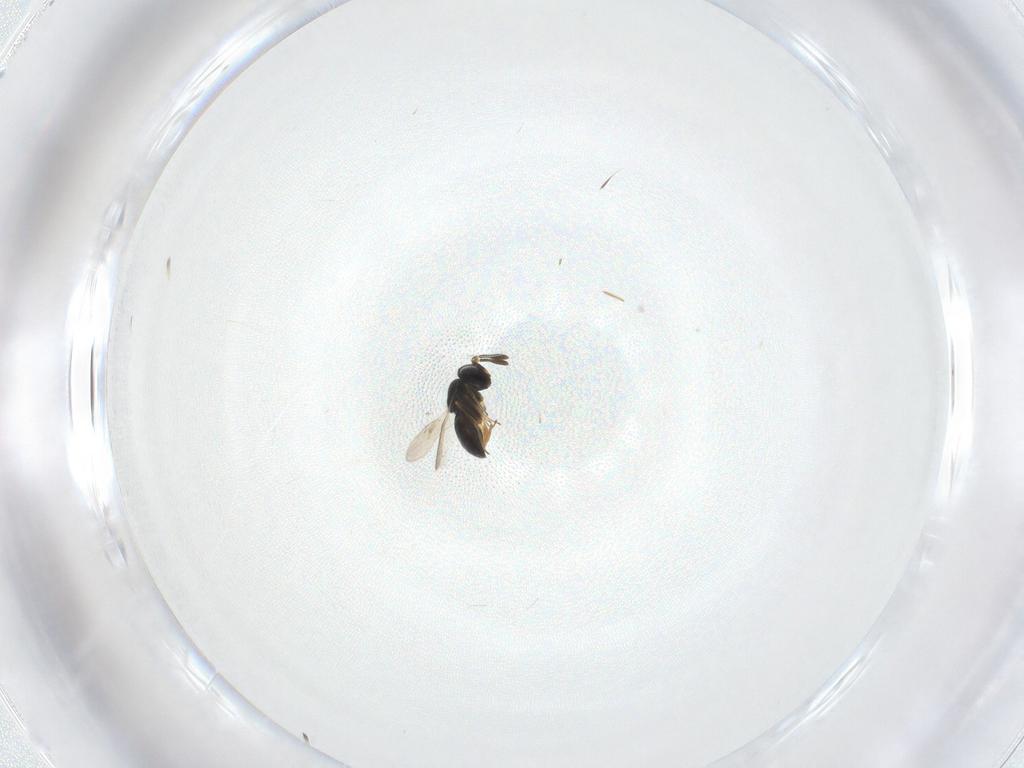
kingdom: Animalia
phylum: Arthropoda
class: Insecta
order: Hymenoptera
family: Scelionidae
